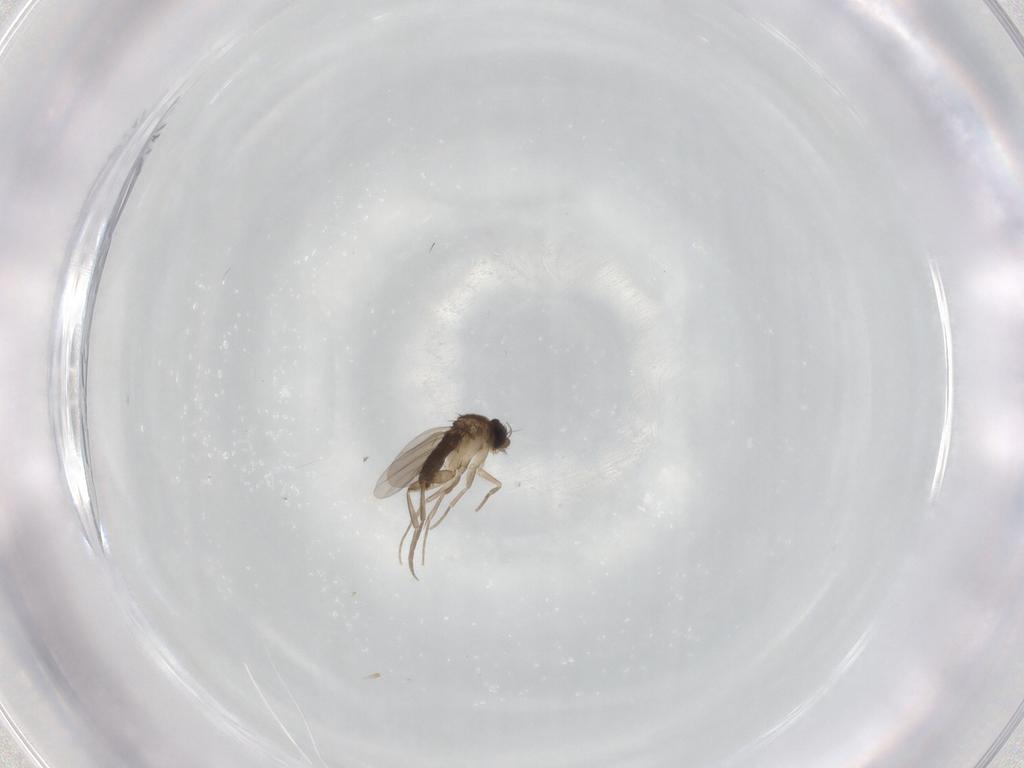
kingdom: Animalia
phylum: Arthropoda
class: Insecta
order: Diptera
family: Phoridae
